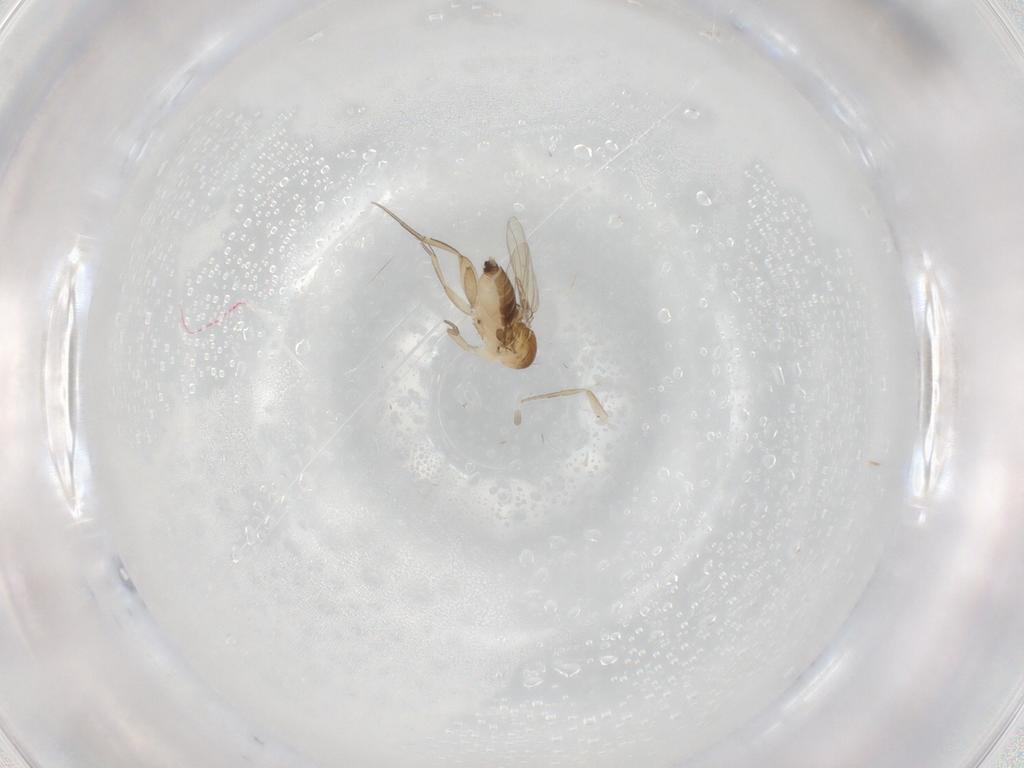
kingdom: Animalia
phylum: Arthropoda
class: Insecta
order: Diptera
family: Phoridae
